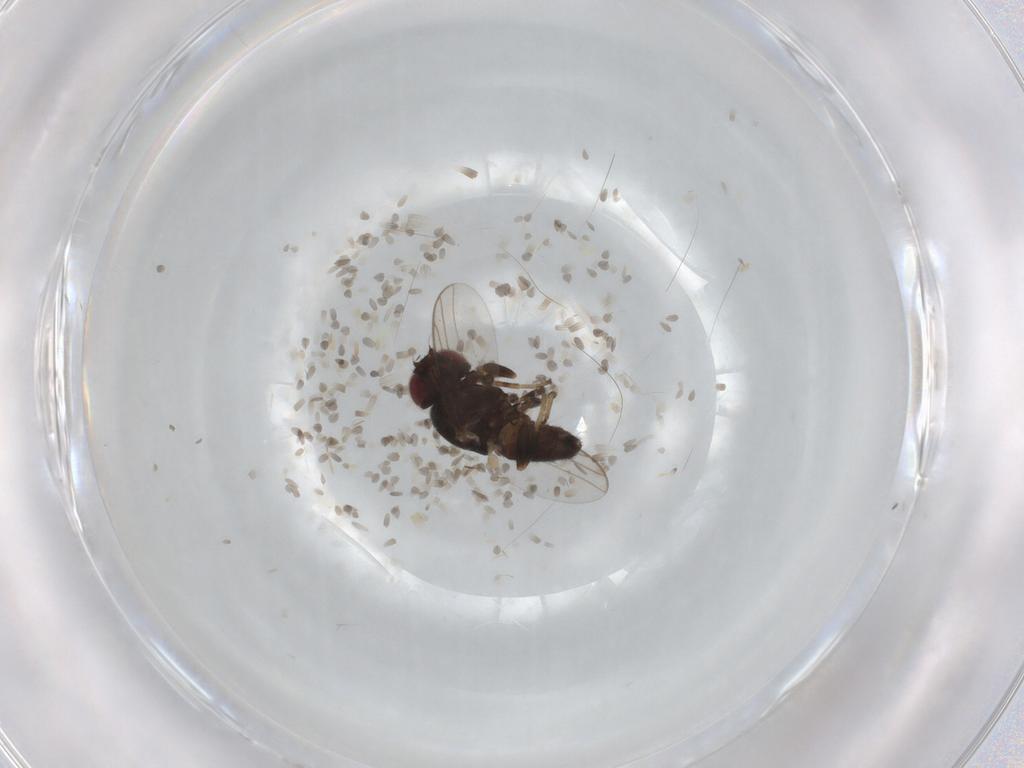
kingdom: Animalia
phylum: Arthropoda
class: Insecta
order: Diptera
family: Chloropidae
